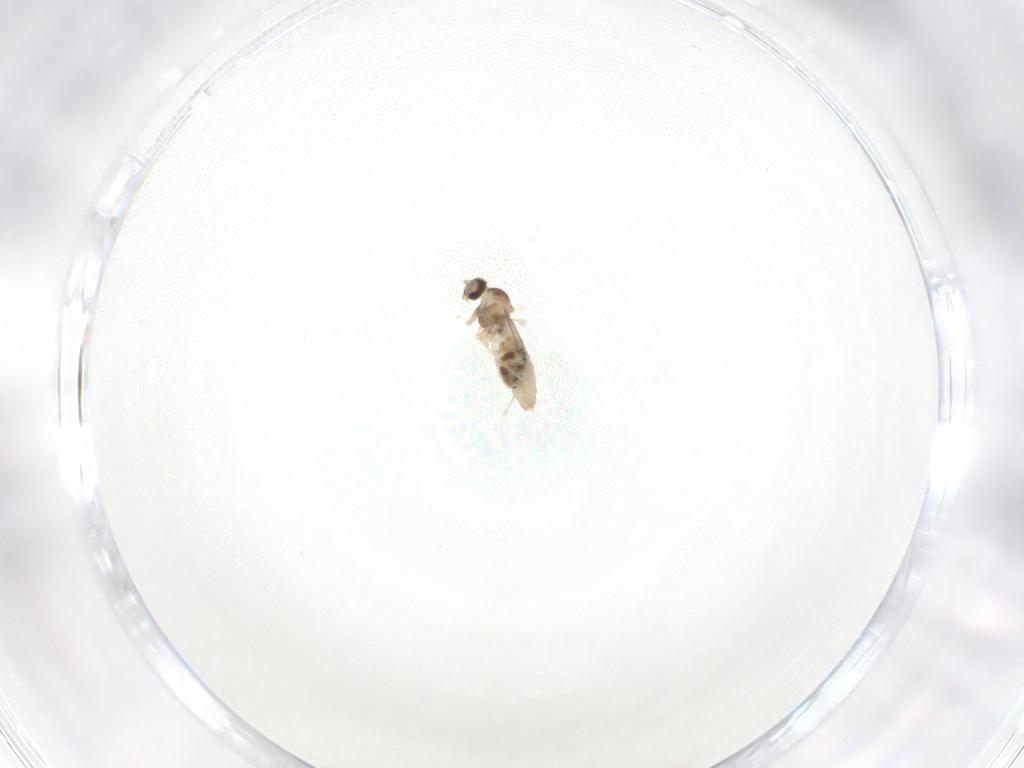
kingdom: Animalia
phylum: Arthropoda
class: Insecta
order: Diptera
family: Cecidomyiidae
